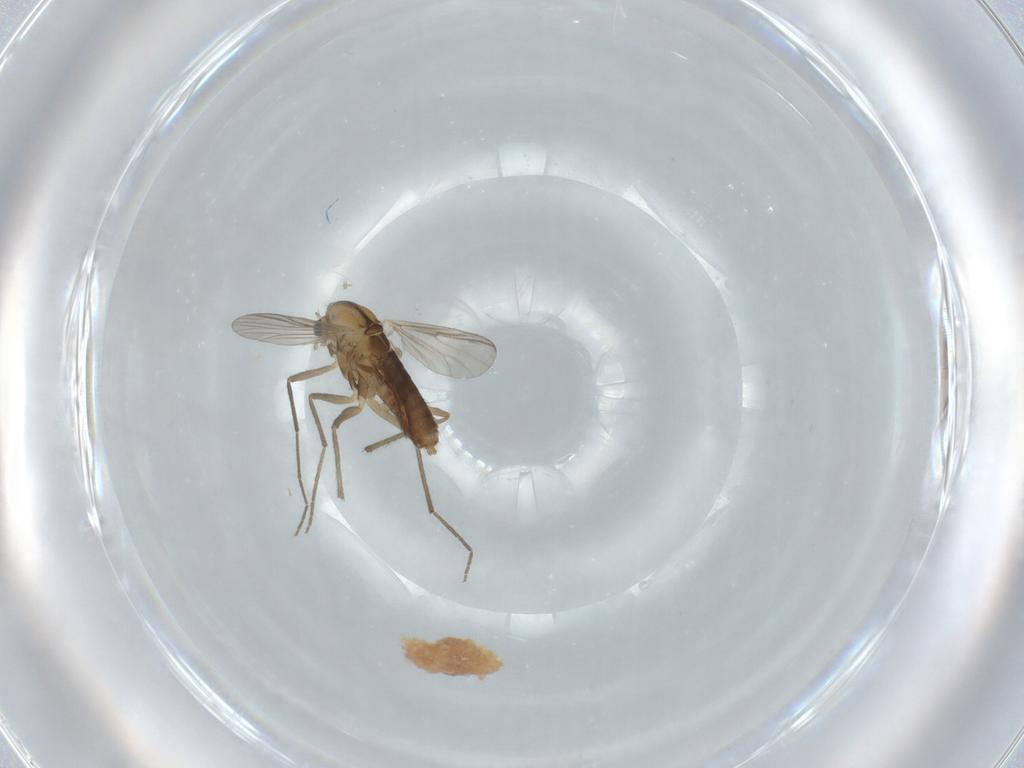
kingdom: Animalia
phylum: Arthropoda
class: Insecta
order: Diptera
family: Chironomidae
